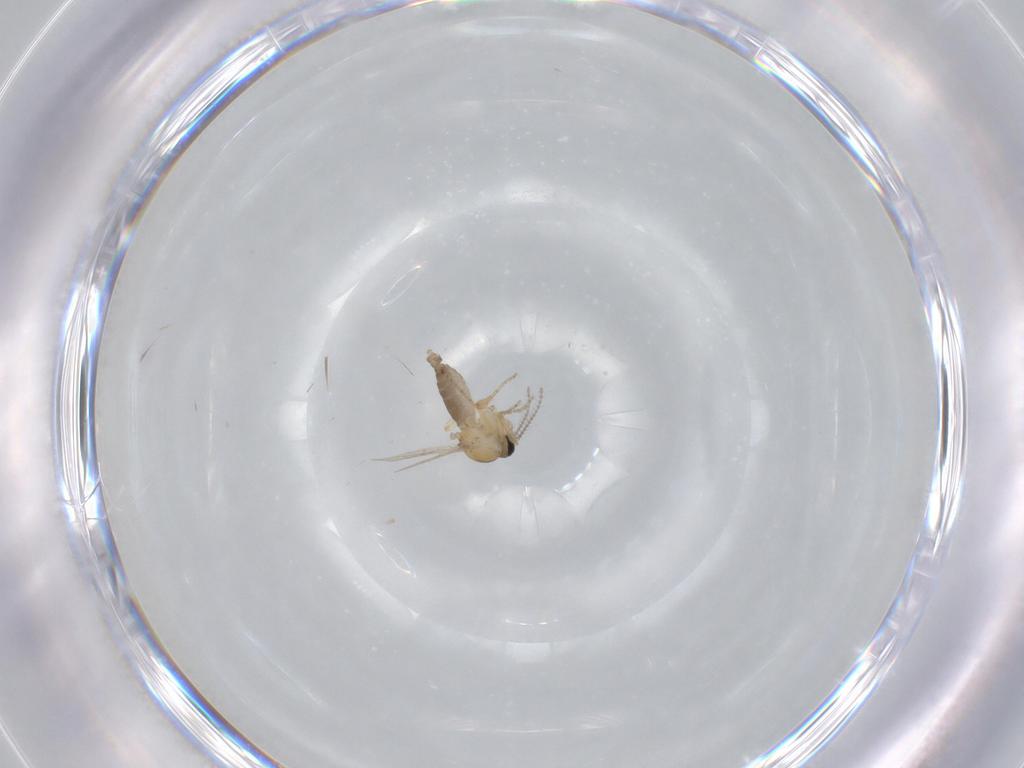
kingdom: Animalia
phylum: Arthropoda
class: Insecta
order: Diptera
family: Ceratopogonidae
